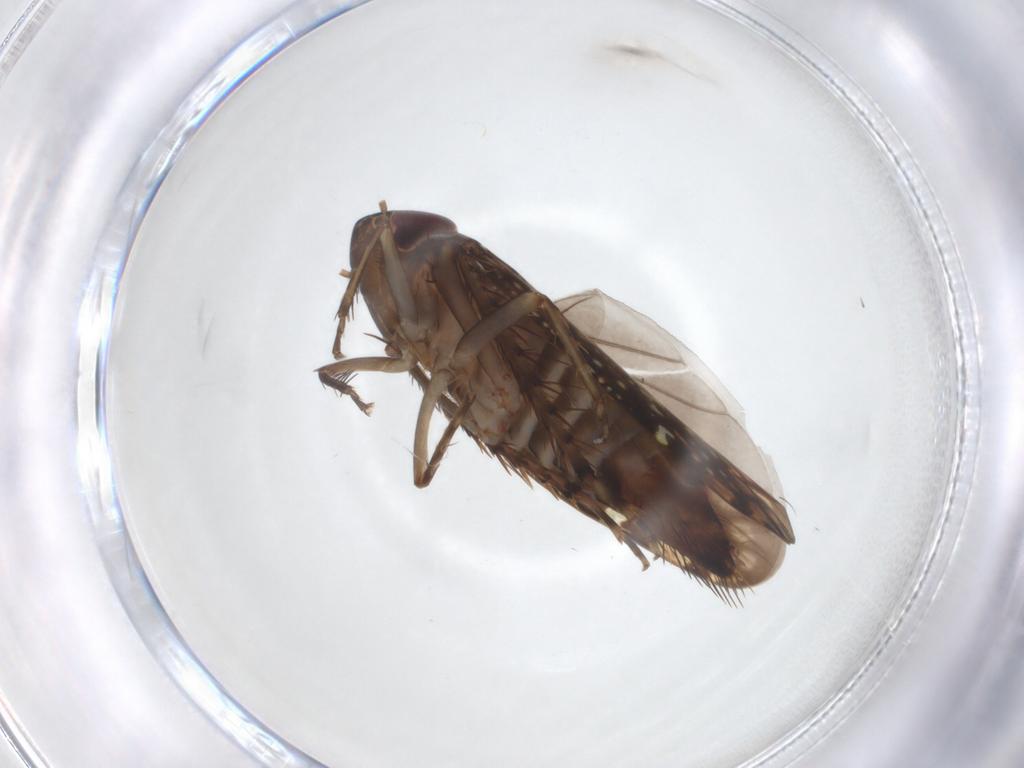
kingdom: Animalia
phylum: Arthropoda
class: Insecta
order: Hemiptera
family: Cicadellidae
